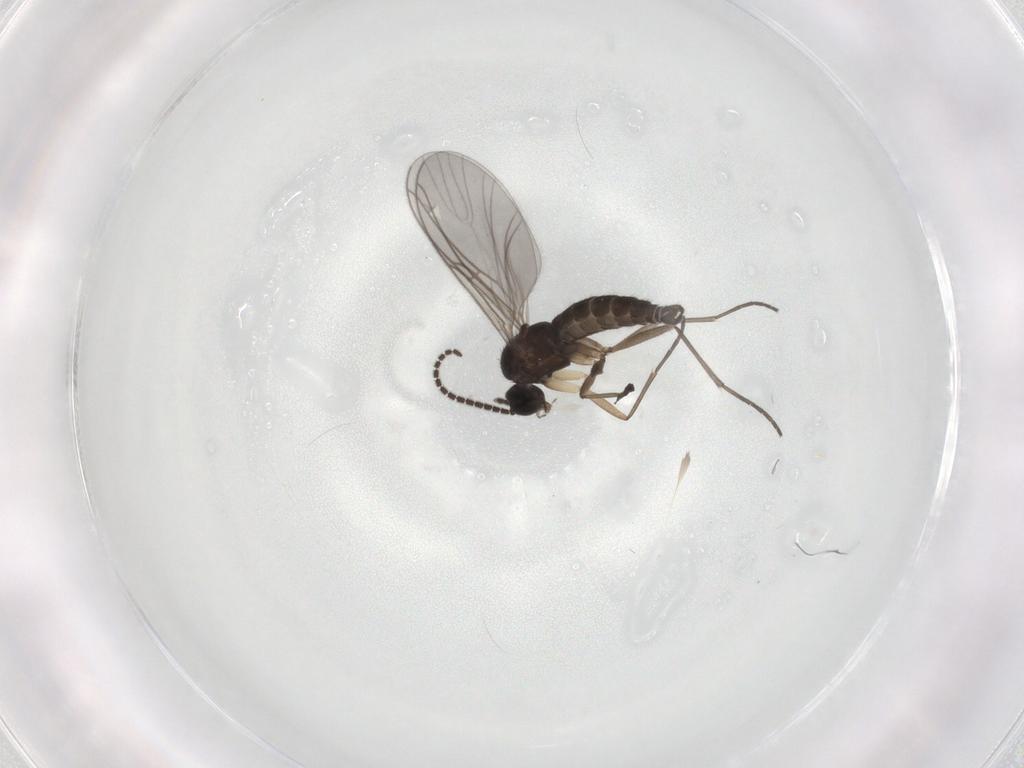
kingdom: Animalia
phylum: Arthropoda
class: Insecta
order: Diptera
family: Sciaridae
